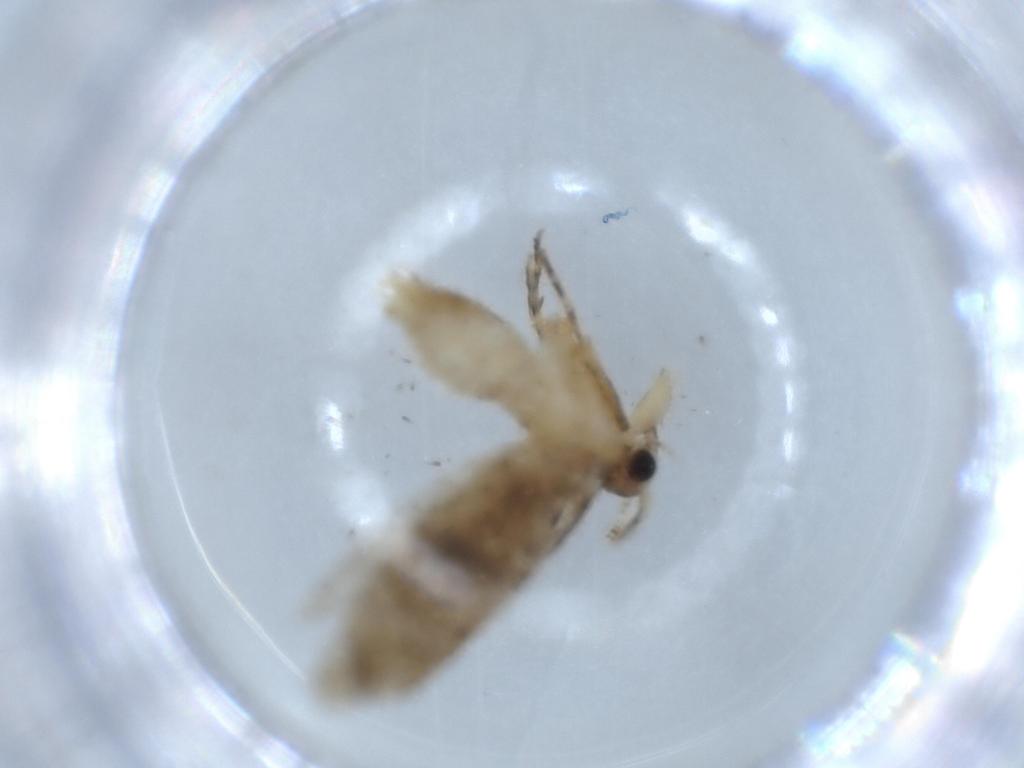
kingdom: Animalia
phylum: Arthropoda
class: Insecta
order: Lepidoptera
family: Tineidae
